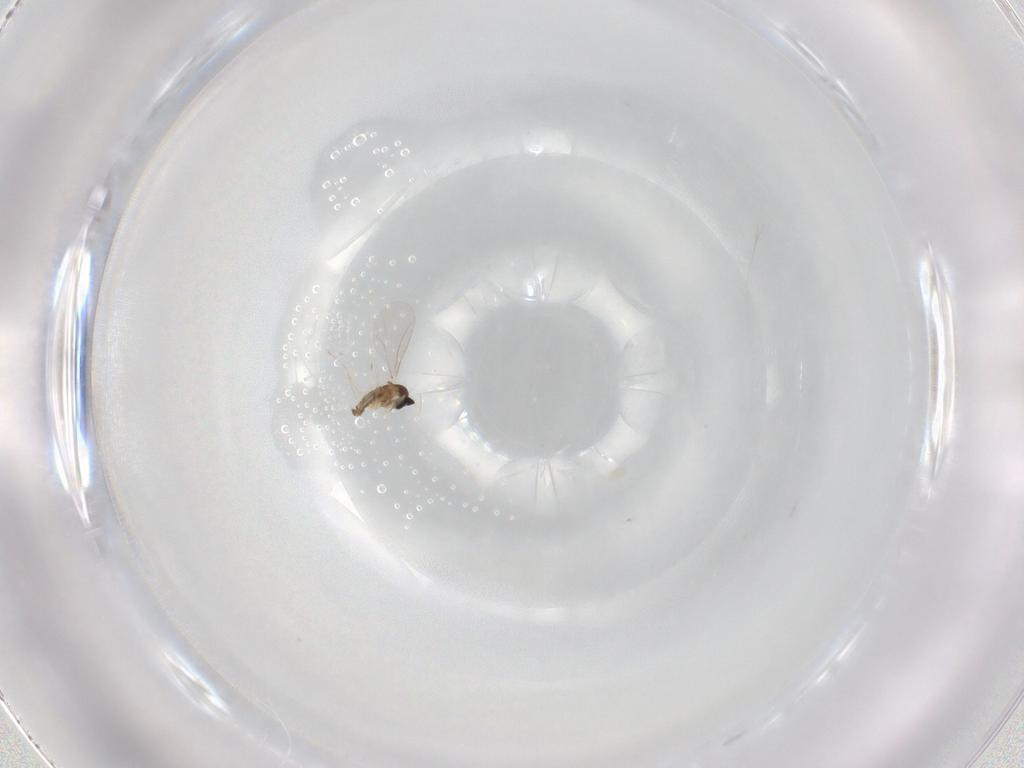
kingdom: Animalia
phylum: Arthropoda
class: Insecta
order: Diptera
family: Cecidomyiidae
